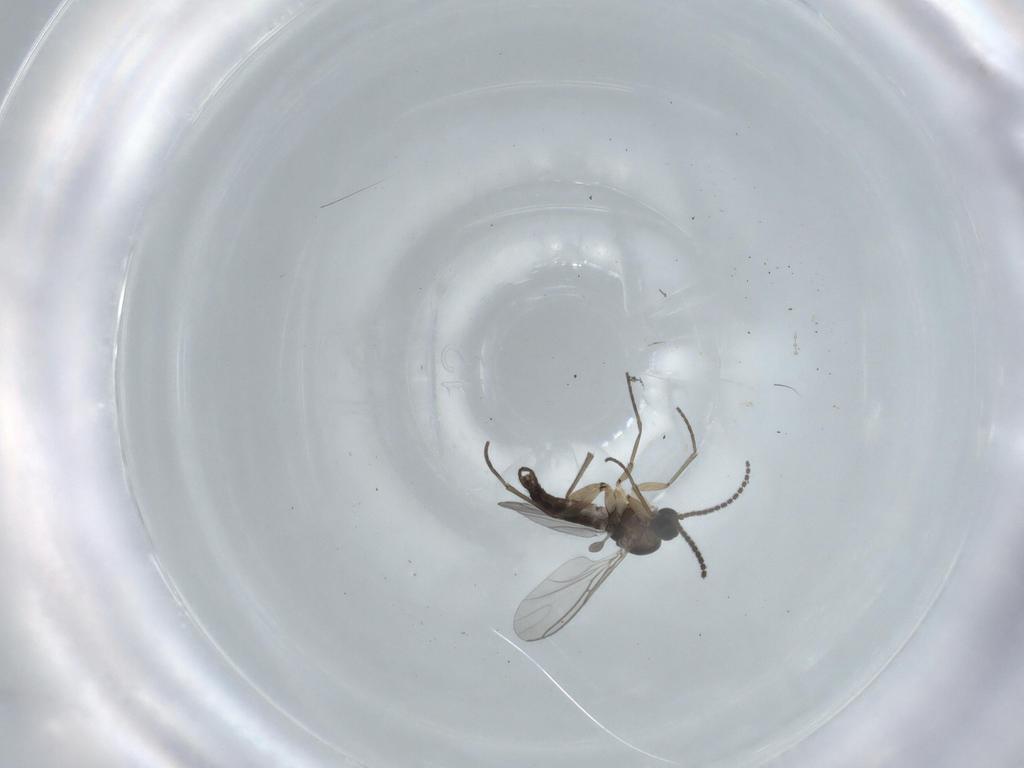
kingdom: Animalia
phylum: Arthropoda
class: Insecta
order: Diptera
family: Sciaridae
